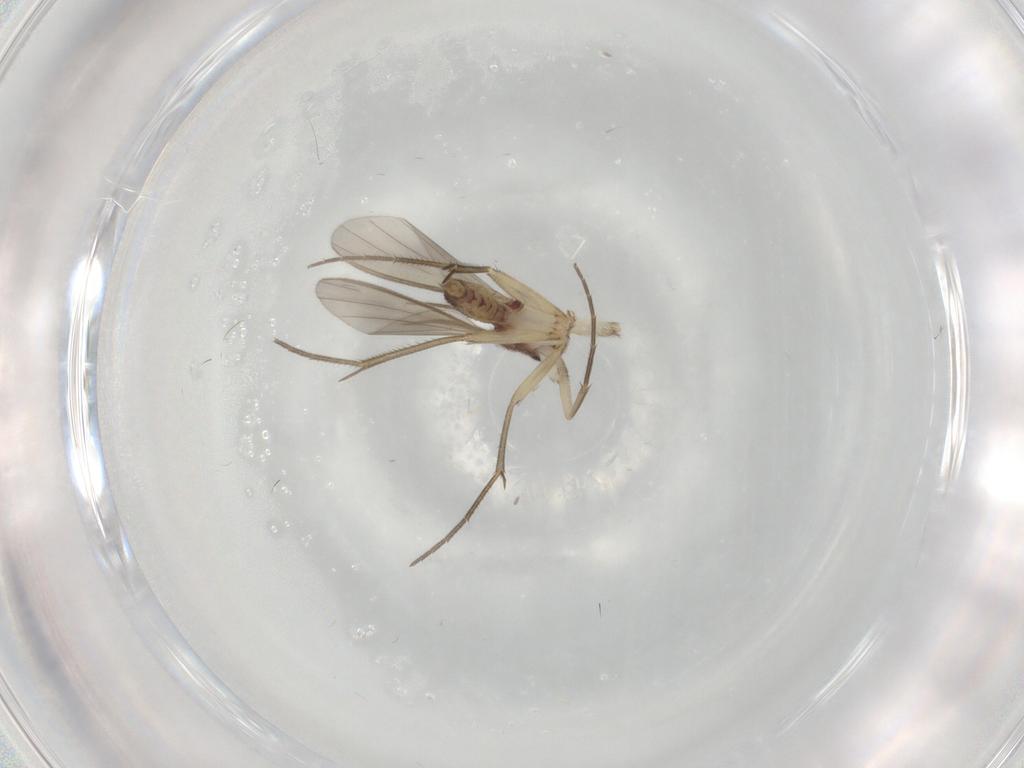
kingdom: Animalia
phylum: Arthropoda
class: Insecta
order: Diptera
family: Mycetophilidae
